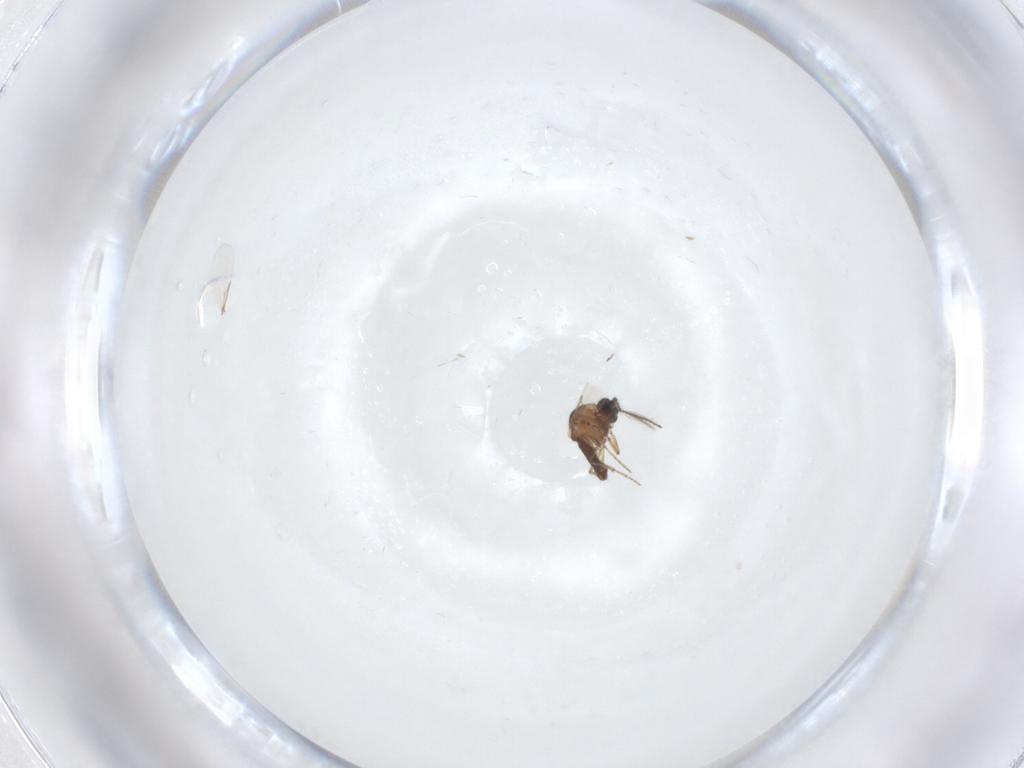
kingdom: Animalia
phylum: Arthropoda
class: Insecta
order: Diptera
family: Ceratopogonidae
